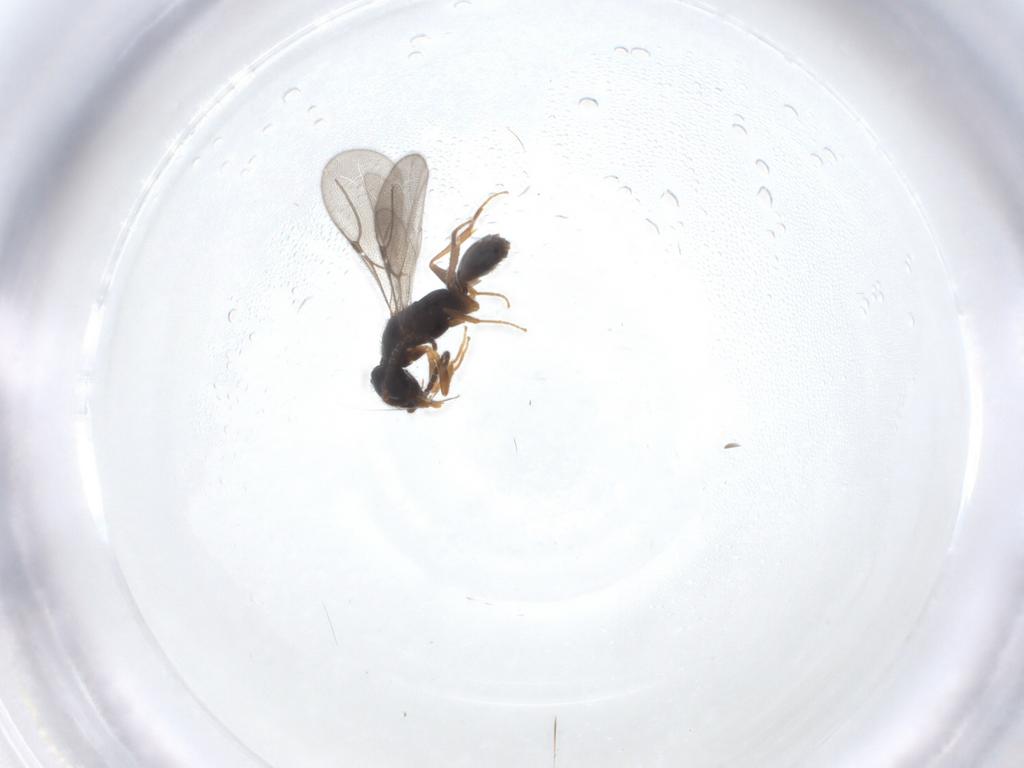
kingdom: Animalia
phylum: Arthropoda
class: Insecta
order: Hymenoptera
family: Bethylidae
